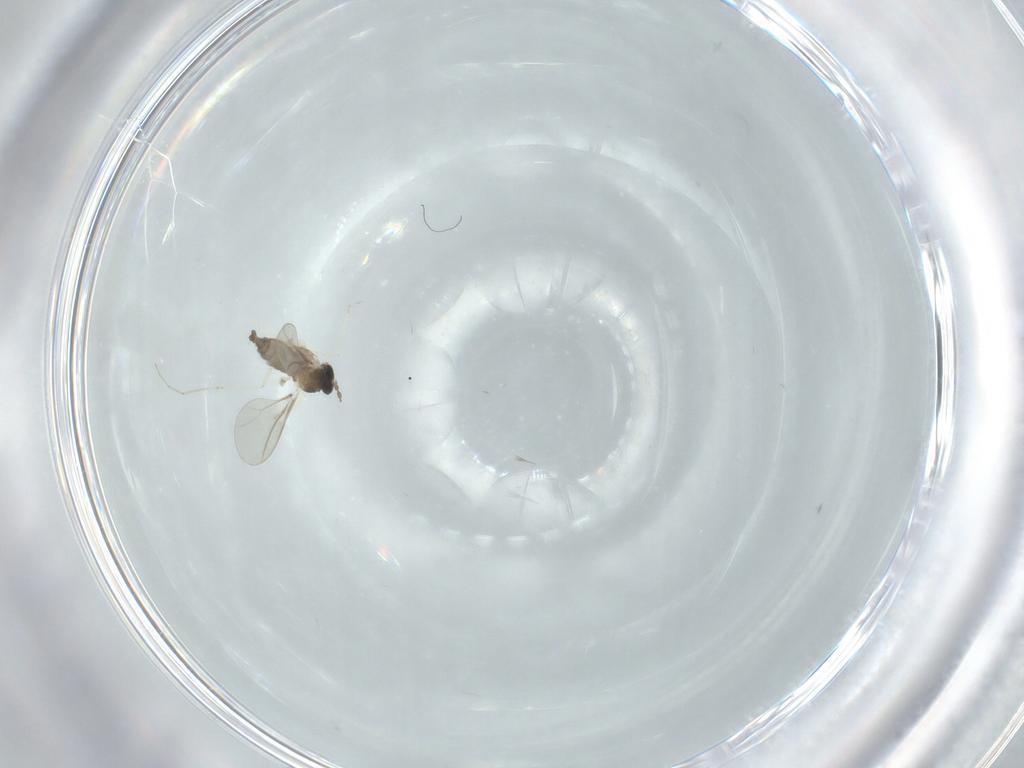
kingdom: Animalia
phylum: Arthropoda
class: Insecta
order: Diptera
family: Cecidomyiidae
